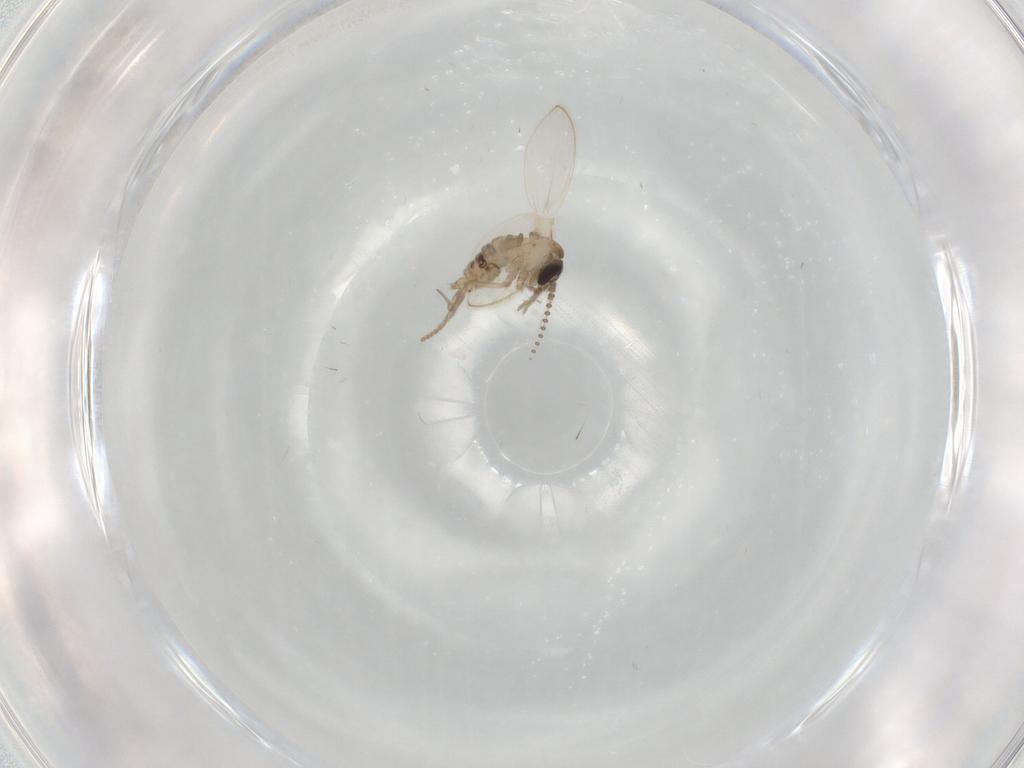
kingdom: Animalia
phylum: Arthropoda
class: Insecta
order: Diptera
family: Psychodidae
